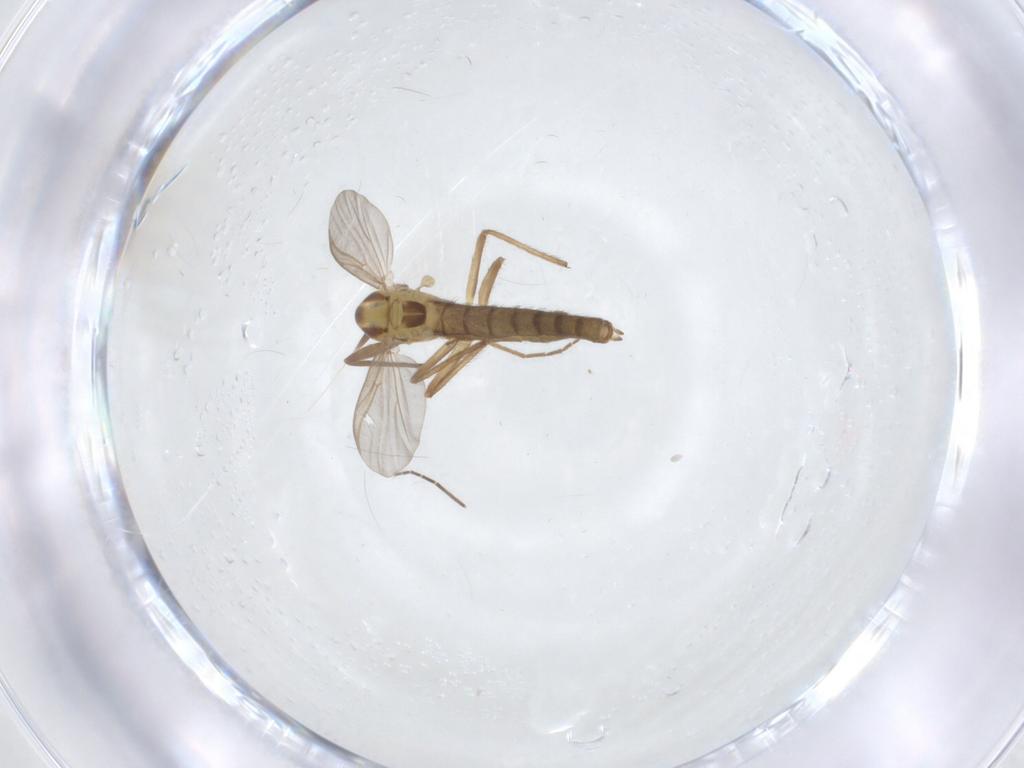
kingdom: Animalia
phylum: Arthropoda
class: Insecta
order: Diptera
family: Chironomidae
